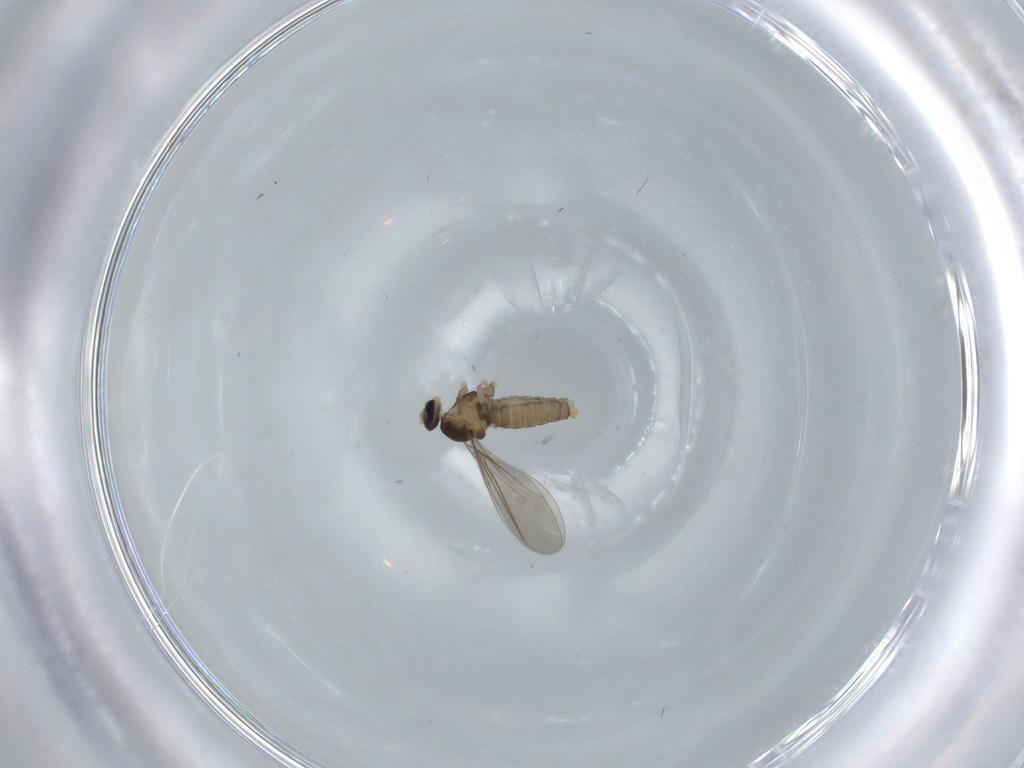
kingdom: Animalia
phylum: Arthropoda
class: Insecta
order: Diptera
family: Cecidomyiidae
